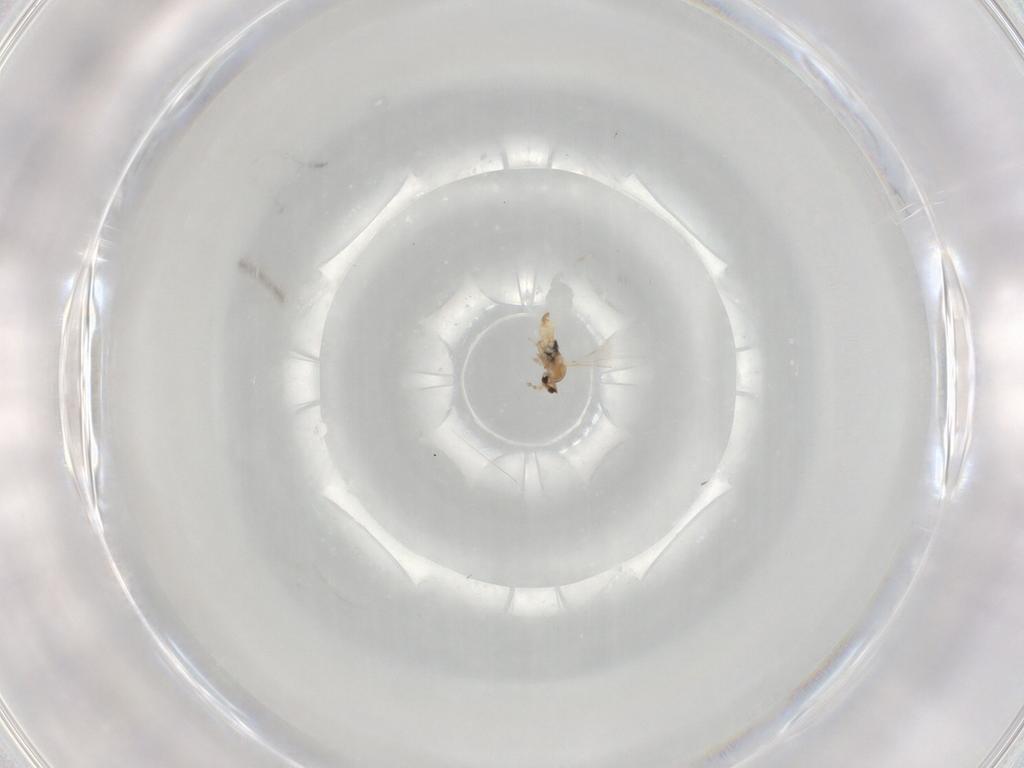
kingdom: Animalia
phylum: Arthropoda
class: Insecta
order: Diptera
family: Cecidomyiidae
